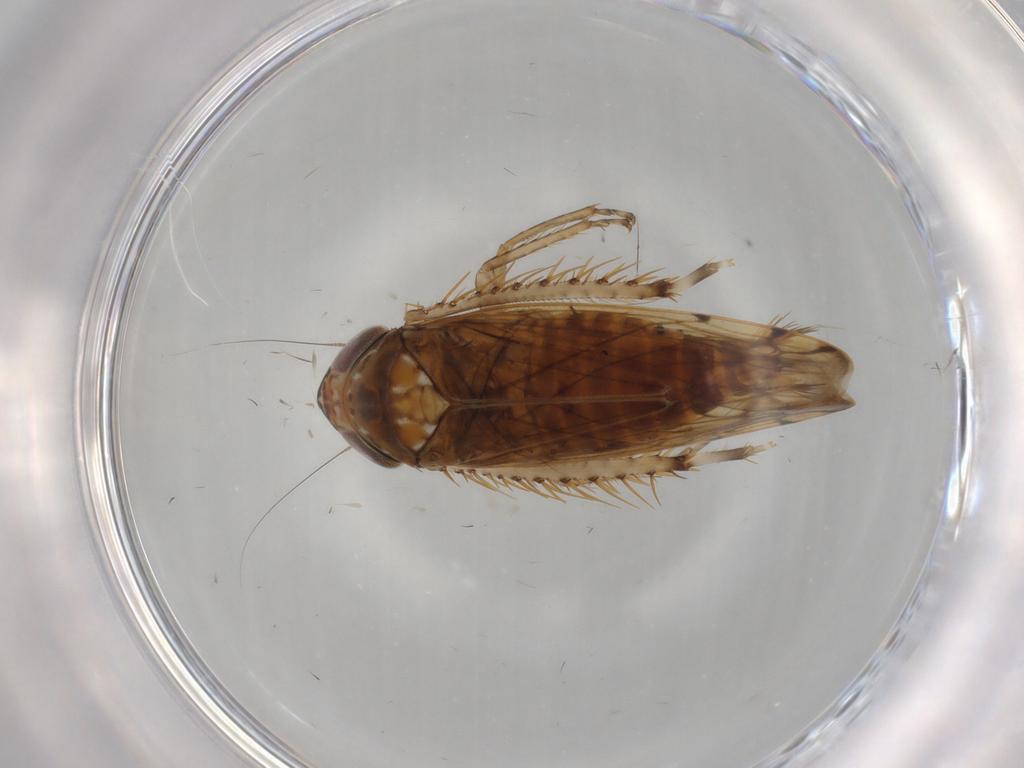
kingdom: Animalia
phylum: Arthropoda
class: Insecta
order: Hemiptera
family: Cicadellidae
